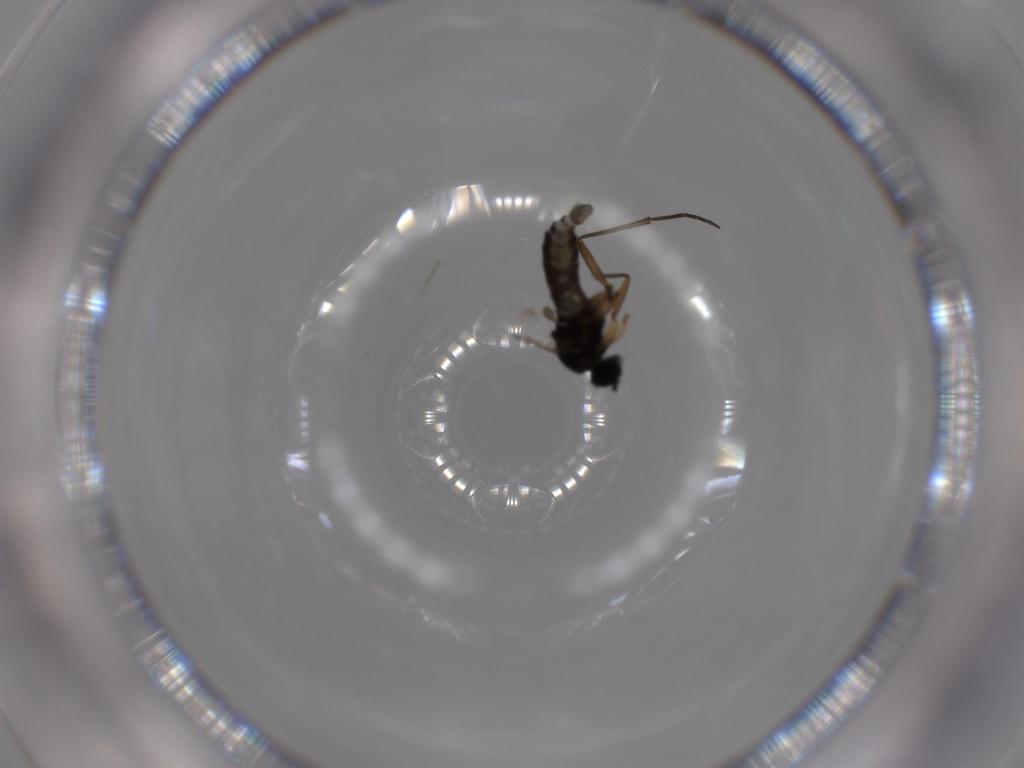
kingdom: Animalia
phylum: Arthropoda
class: Insecta
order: Diptera
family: Sciaridae
